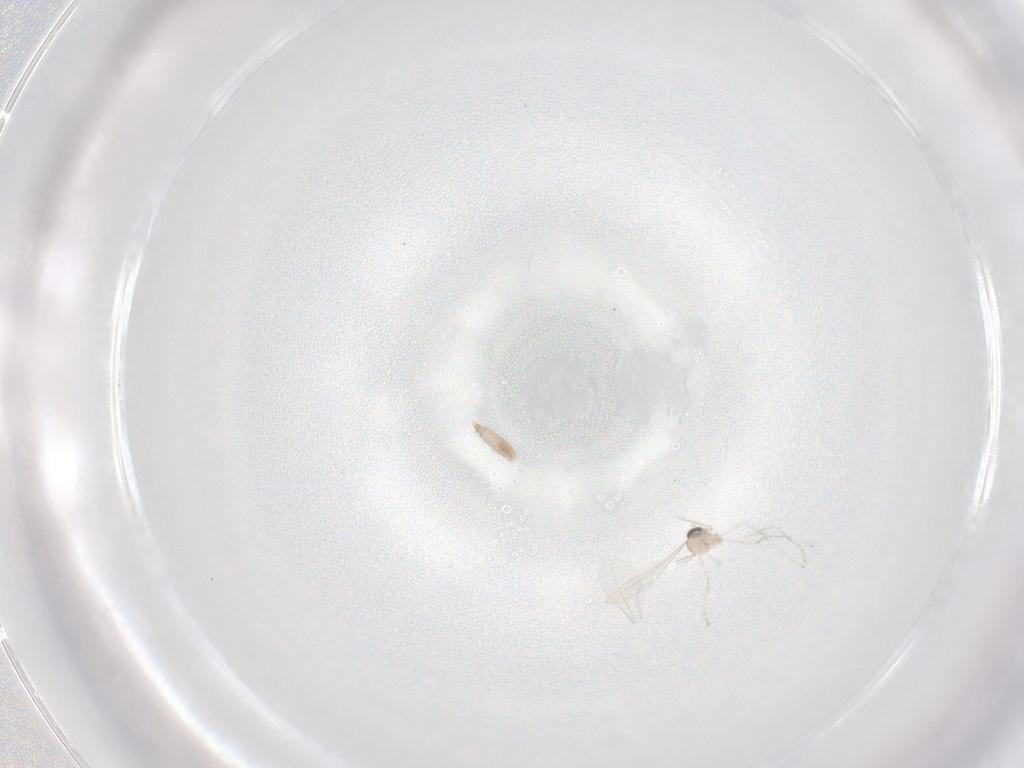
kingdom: Animalia
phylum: Arthropoda
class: Insecta
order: Diptera
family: Cecidomyiidae
